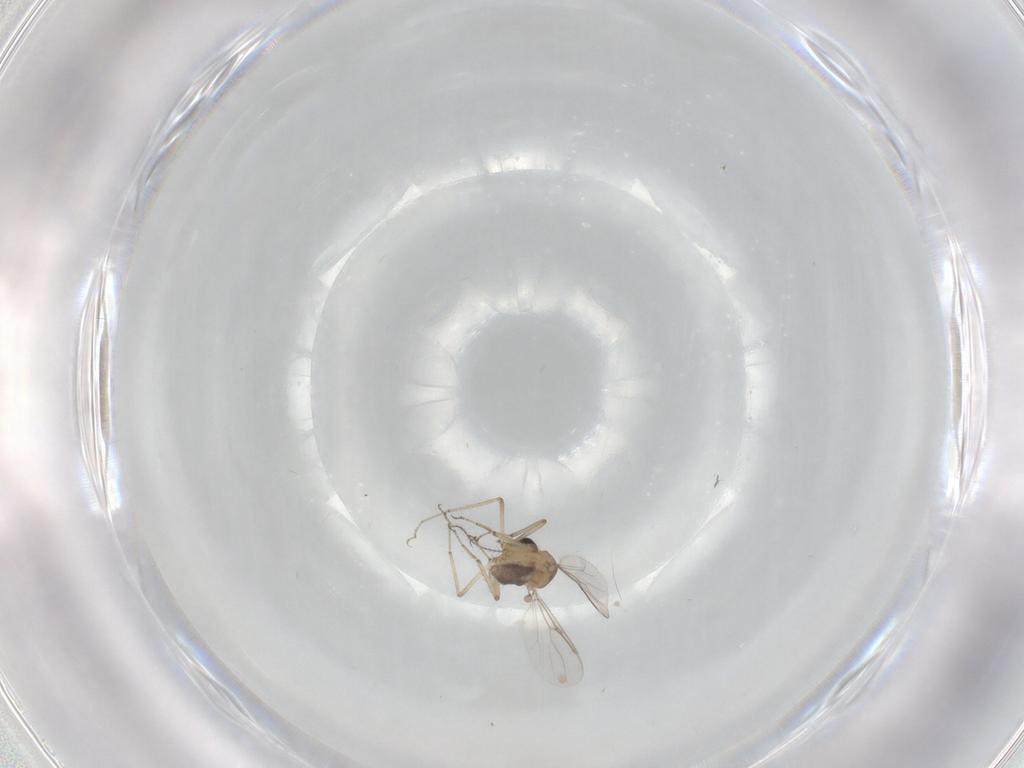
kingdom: Animalia
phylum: Arthropoda
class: Insecta
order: Diptera
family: Ceratopogonidae
